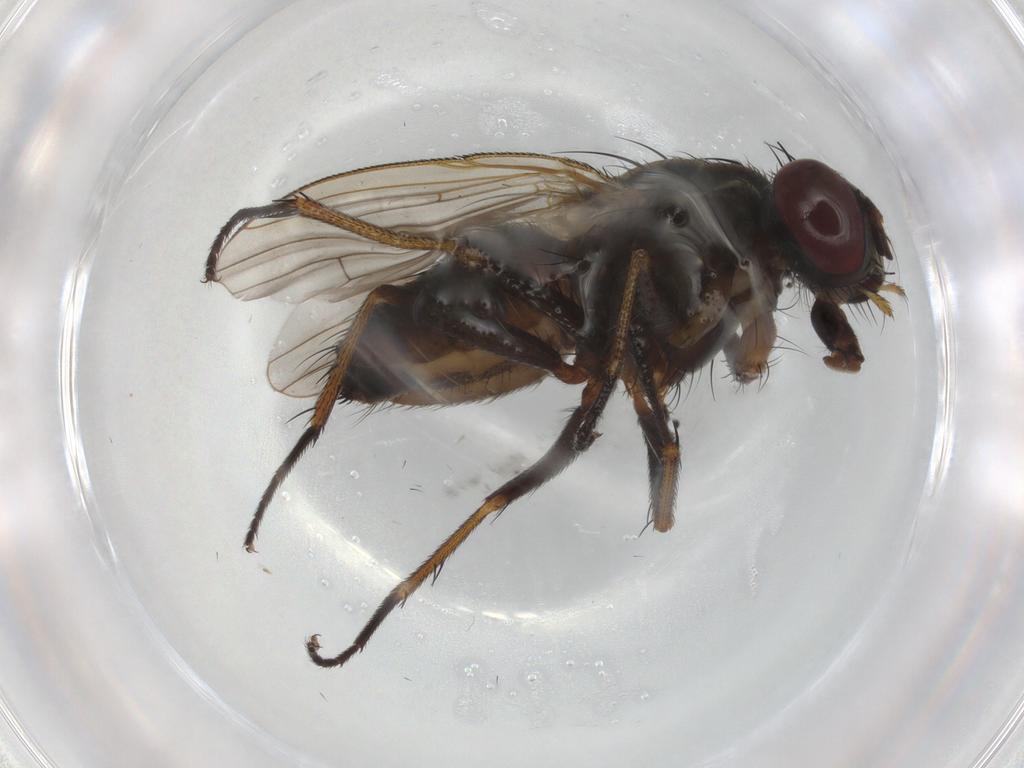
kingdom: Animalia
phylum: Arthropoda
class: Insecta
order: Diptera
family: Muscidae
